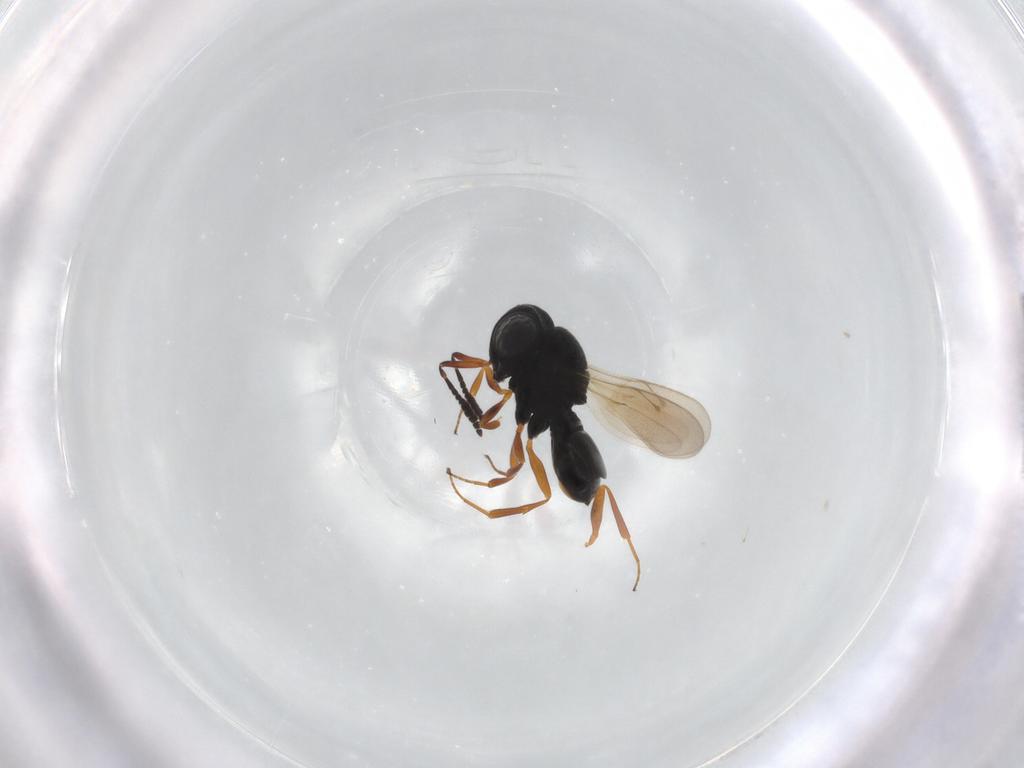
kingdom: Animalia
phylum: Arthropoda
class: Insecta
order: Hymenoptera
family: Scelionidae
